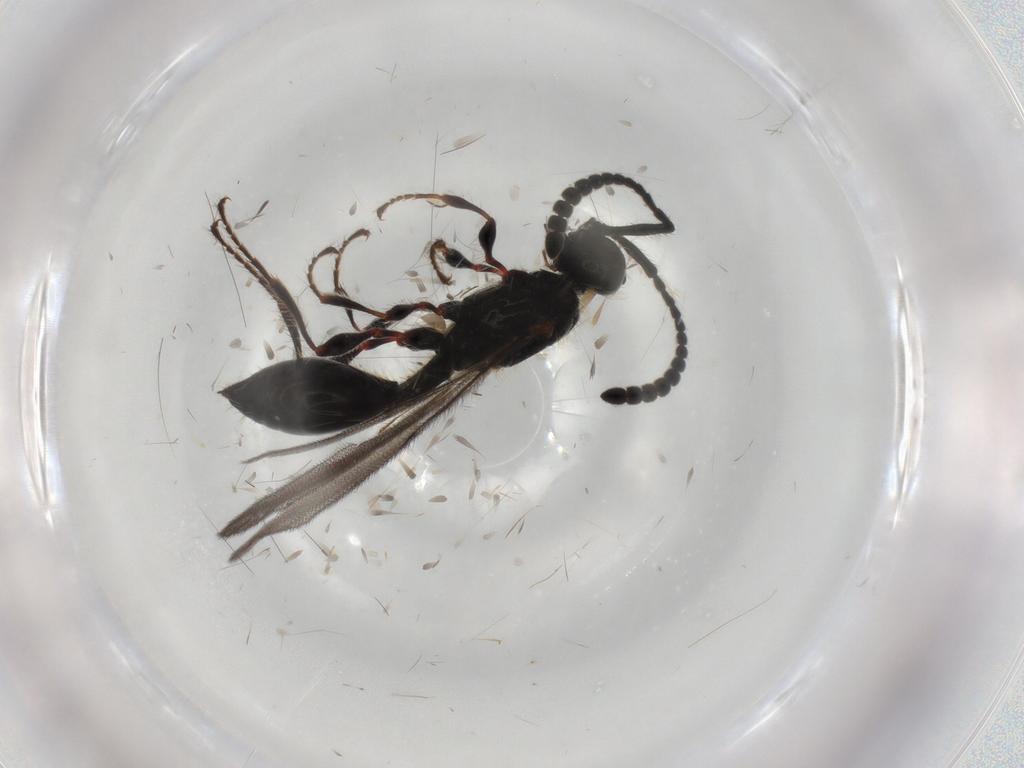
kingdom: Animalia
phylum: Arthropoda
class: Insecta
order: Hymenoptera
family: Diapriidae
